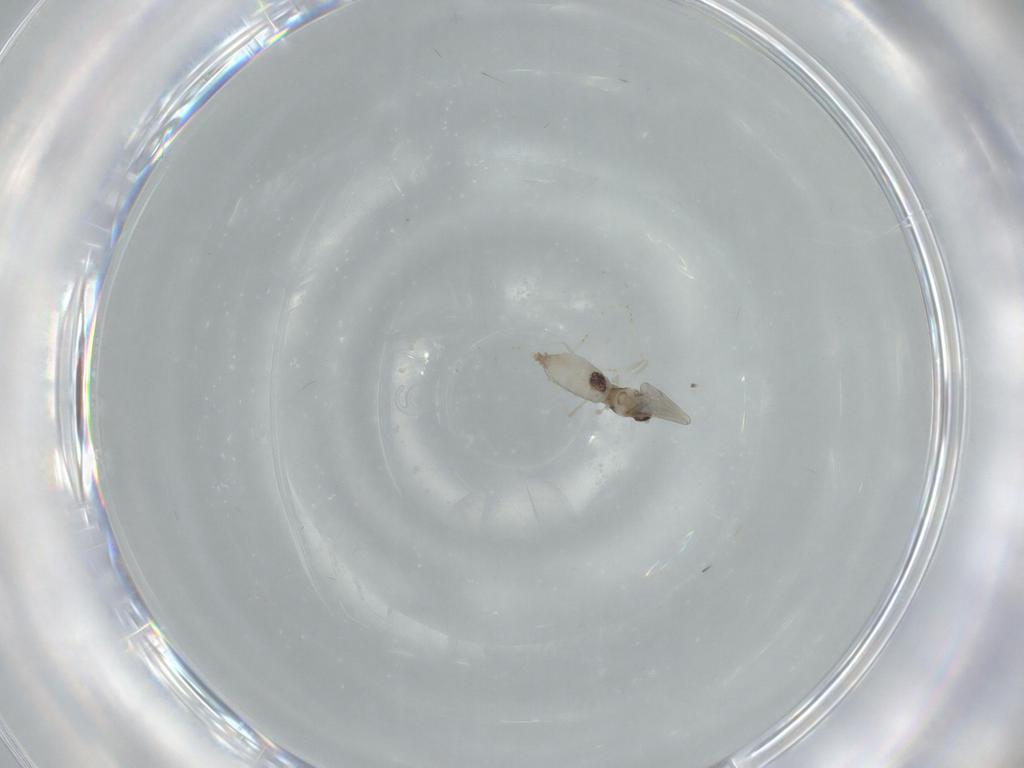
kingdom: Animalia
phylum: Arthropoda
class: Insecta
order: Diptera
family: Cecidomyiidae
